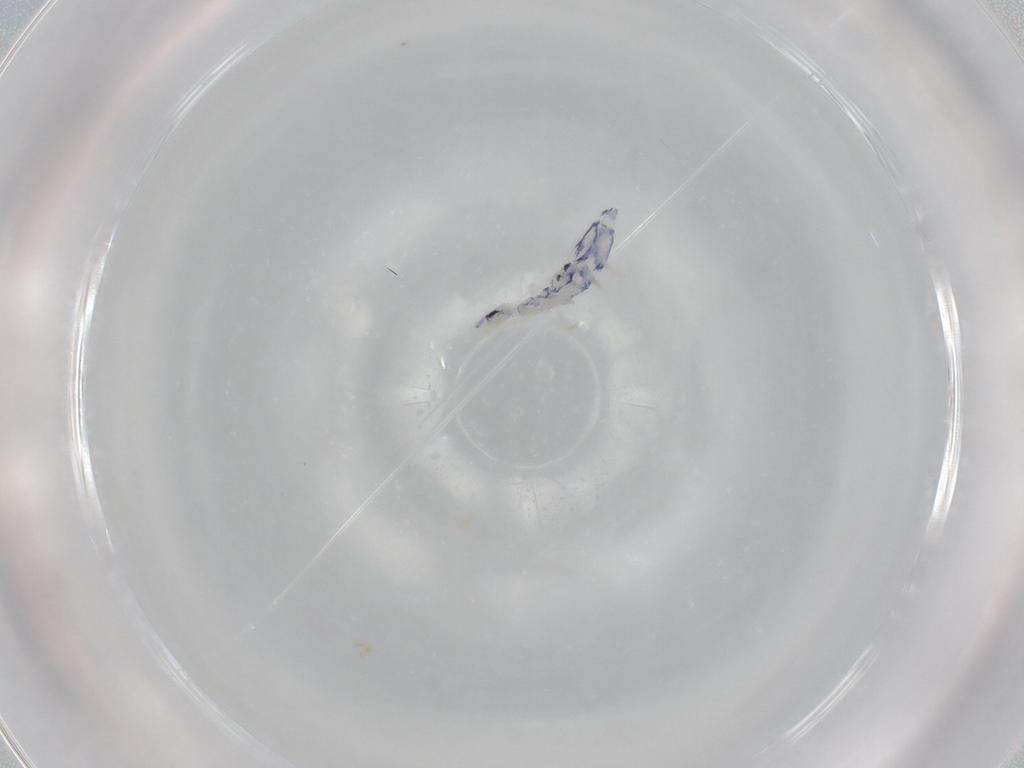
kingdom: Animalia
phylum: Arthropoda
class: Collembola
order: Entomobryomorpha
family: Entomobryidae
